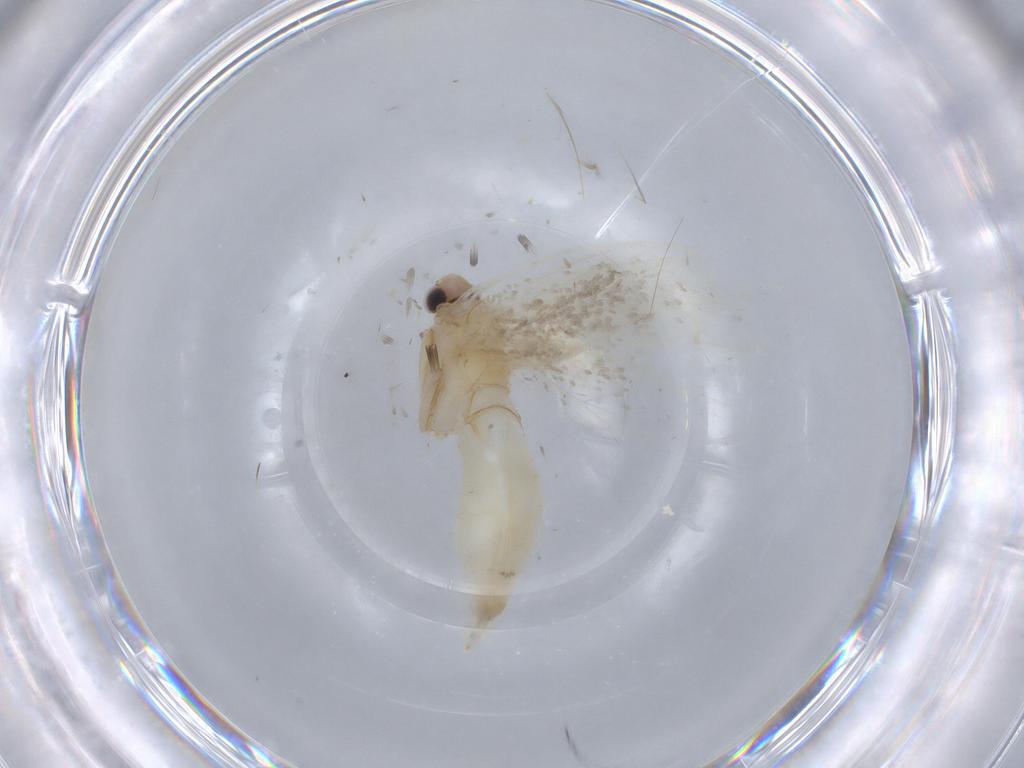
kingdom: Animalia
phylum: Arthropoda
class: Insecta
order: Lepidoptera
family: Tineidae
